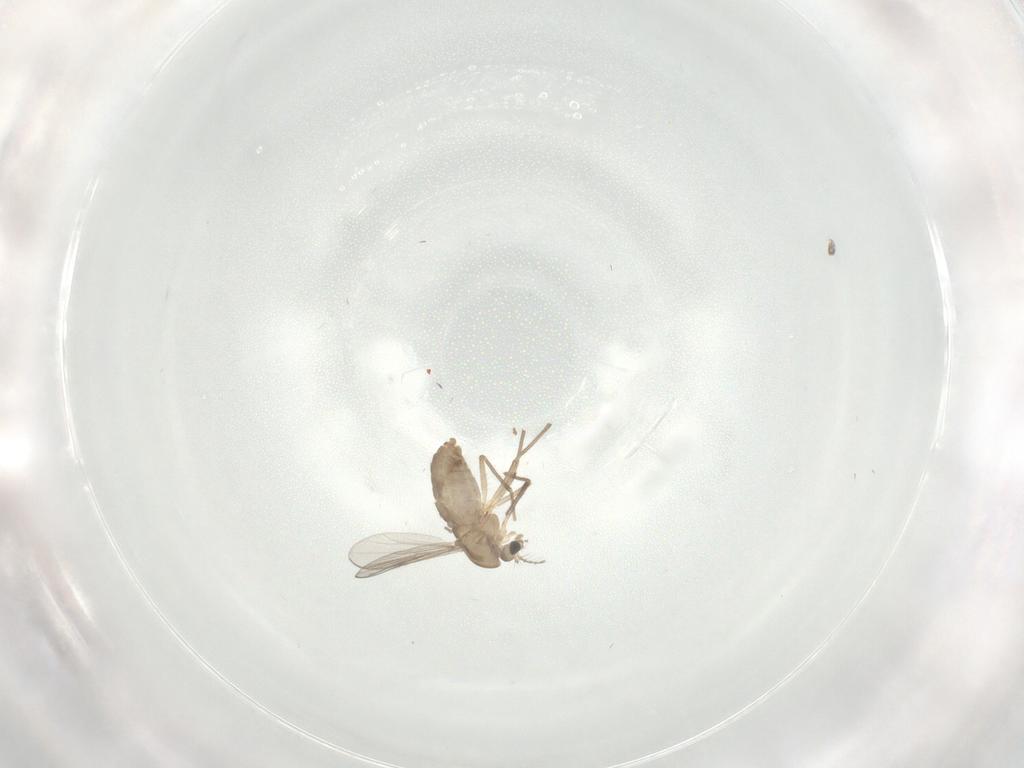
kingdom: Animalia
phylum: Arthropoda
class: Insecta
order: Diptera
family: Chironomidae
